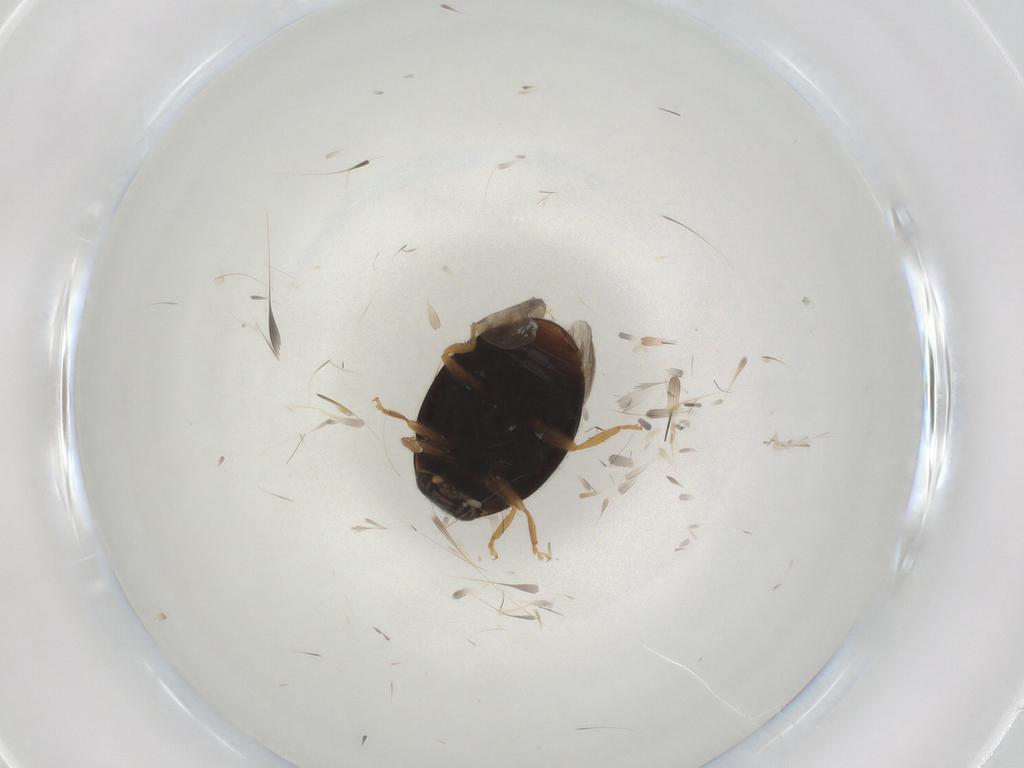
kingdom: Animalia
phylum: Arthropoda
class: Insecta
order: Coleoptera
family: Coccinellidae
